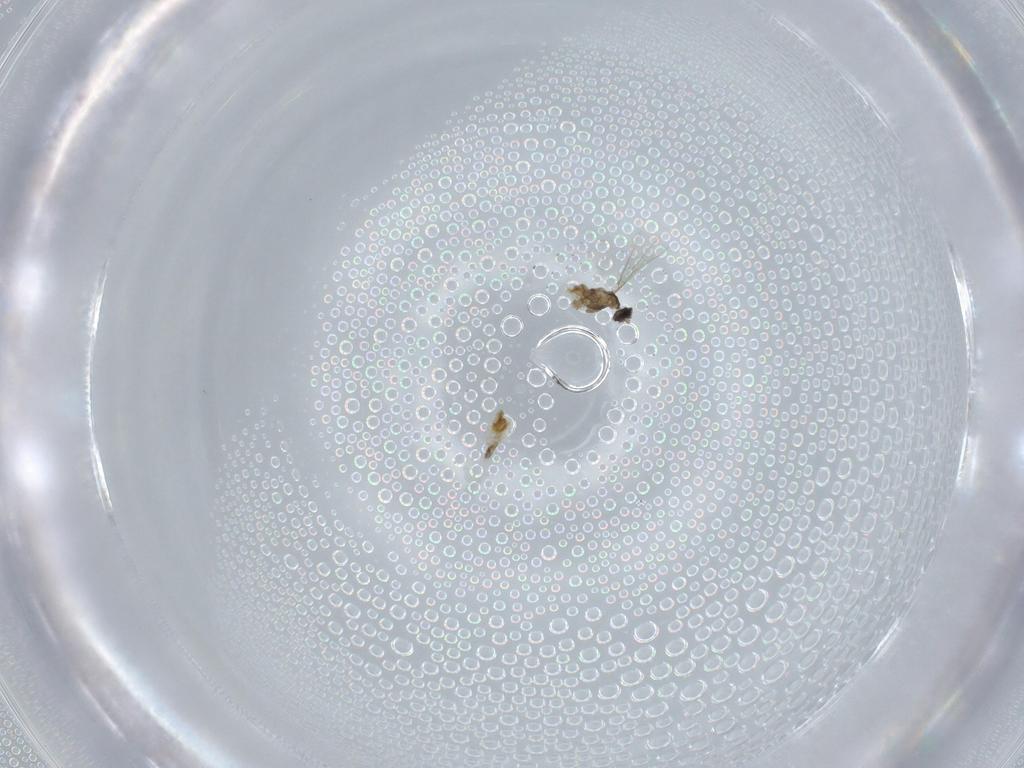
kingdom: Animalia
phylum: Arthropoda
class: Insecta
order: Diptera
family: Cecidomyiidae
